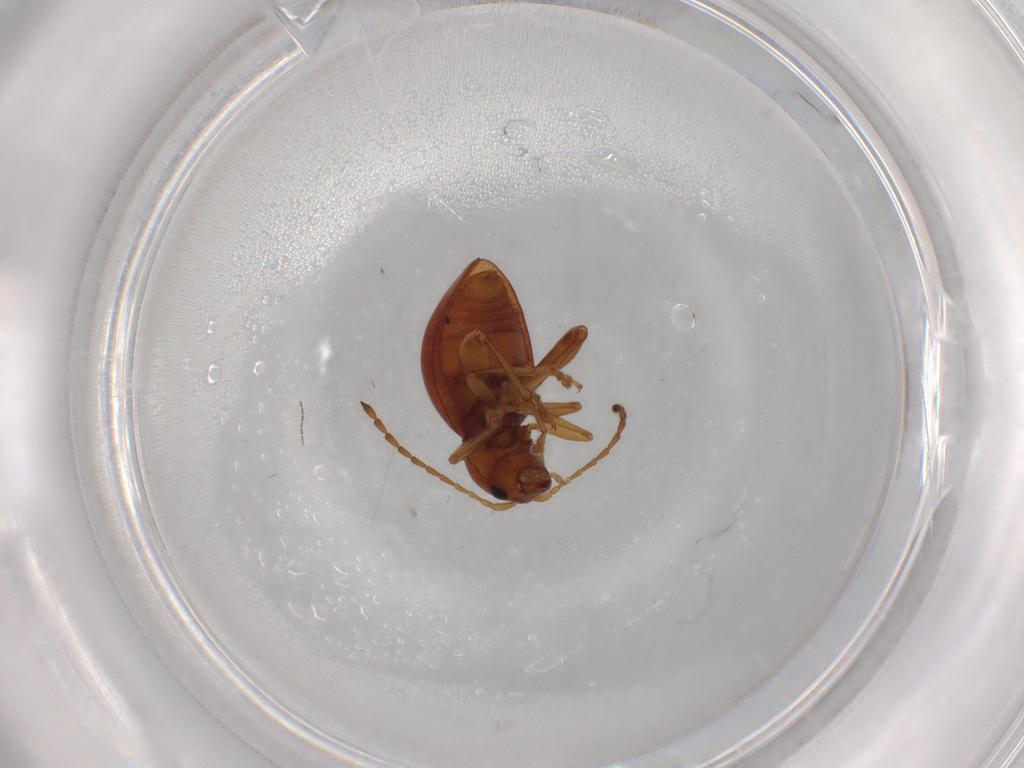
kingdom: Animalia
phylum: Arthropoda
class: Insecta
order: Coleoptera
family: Chrysomelidae
